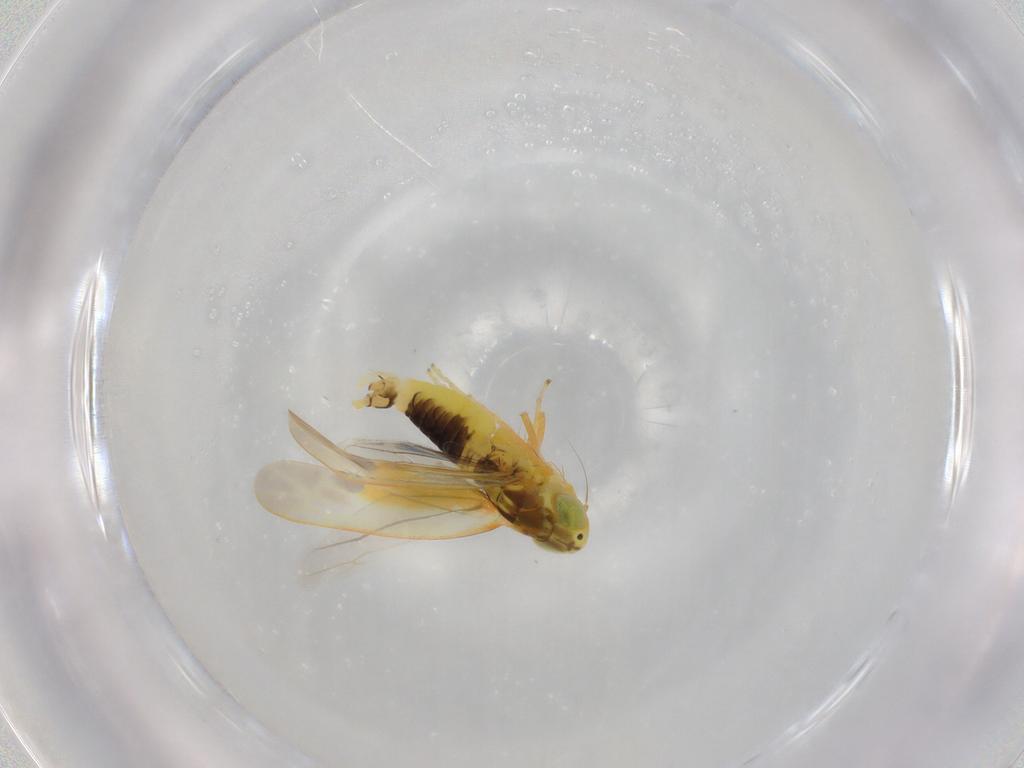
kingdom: Animalia
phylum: Arthropoda
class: Insecta
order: Hemiptera
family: Cicadellidae
